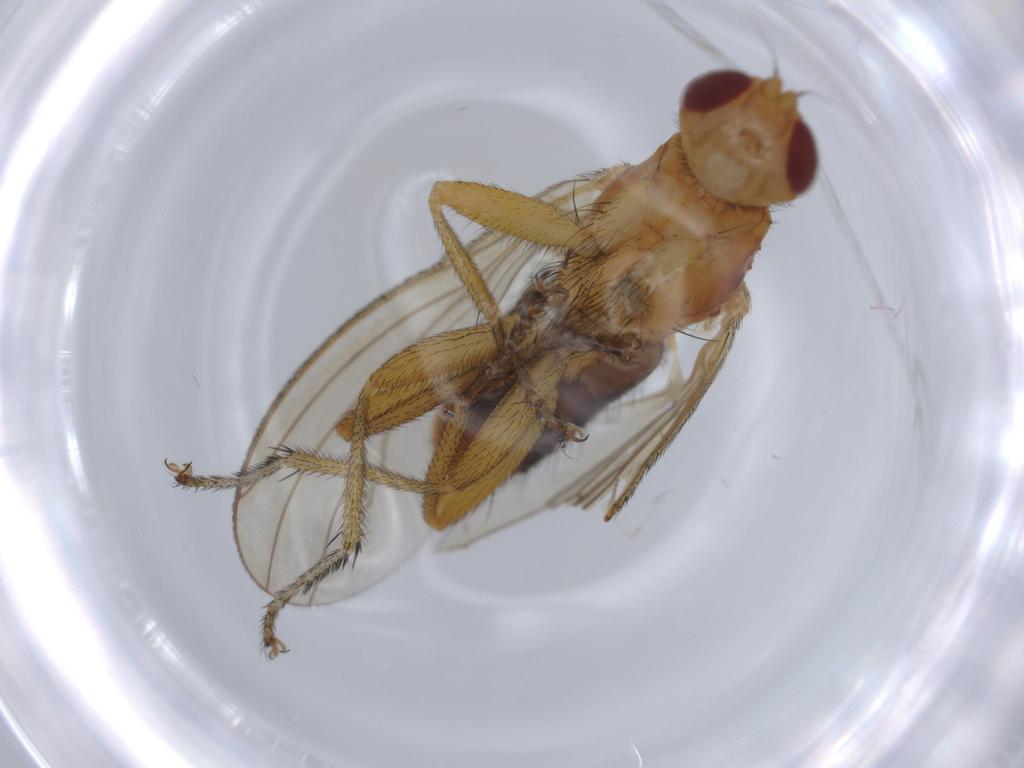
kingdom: Animalia
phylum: Arthropoda
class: Insecta
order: Diptera
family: Heleomyzidae
